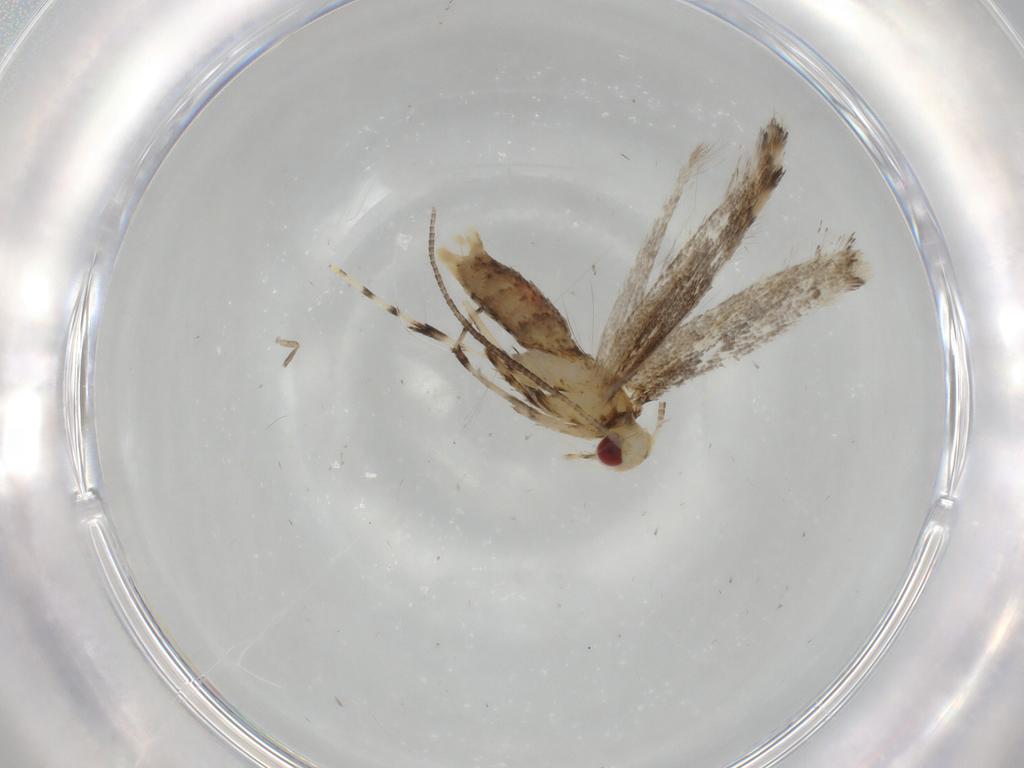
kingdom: Animalia
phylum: Arthropoda
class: Insecta
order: Lepidoptera
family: Gracillariidae
